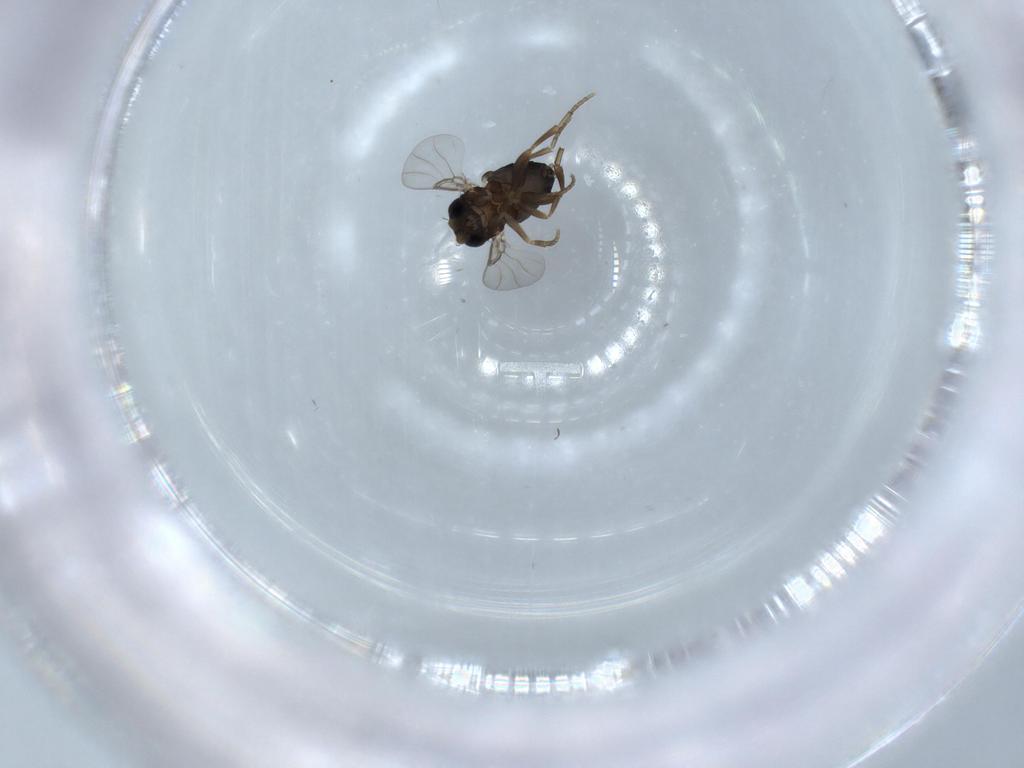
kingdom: Animalia
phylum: Arthropoda
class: Insecta
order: Diptera
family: Phoridae
